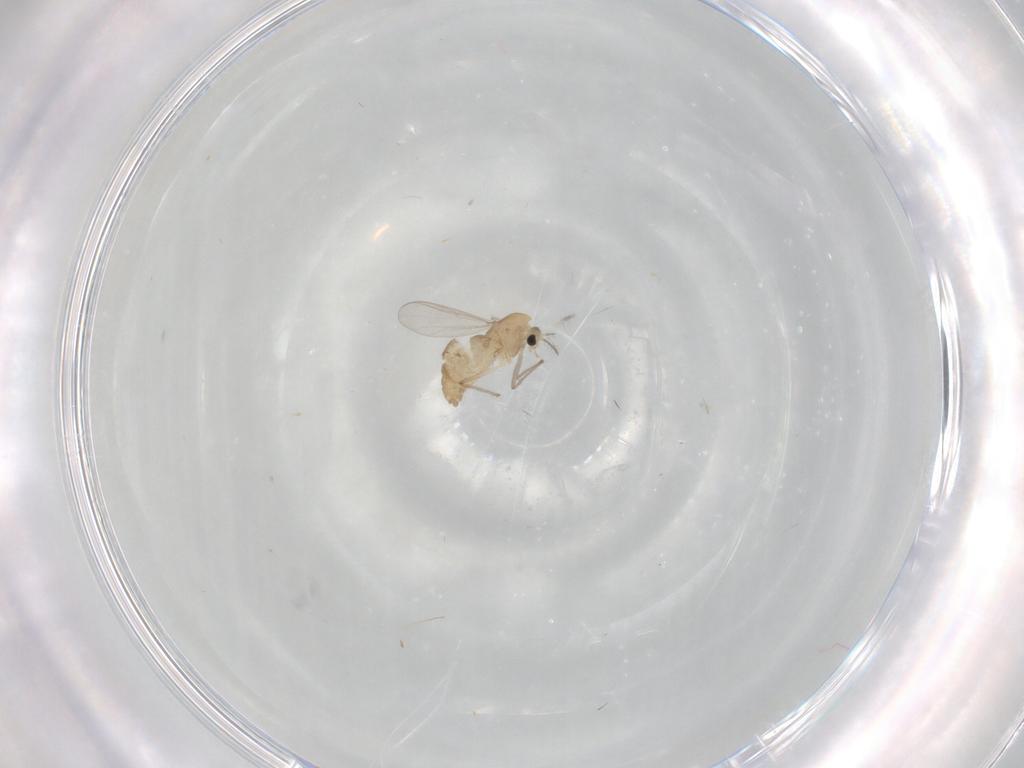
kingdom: Animalia
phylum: Arthropoda
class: Insecta
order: Diptera
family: Chironomidae
